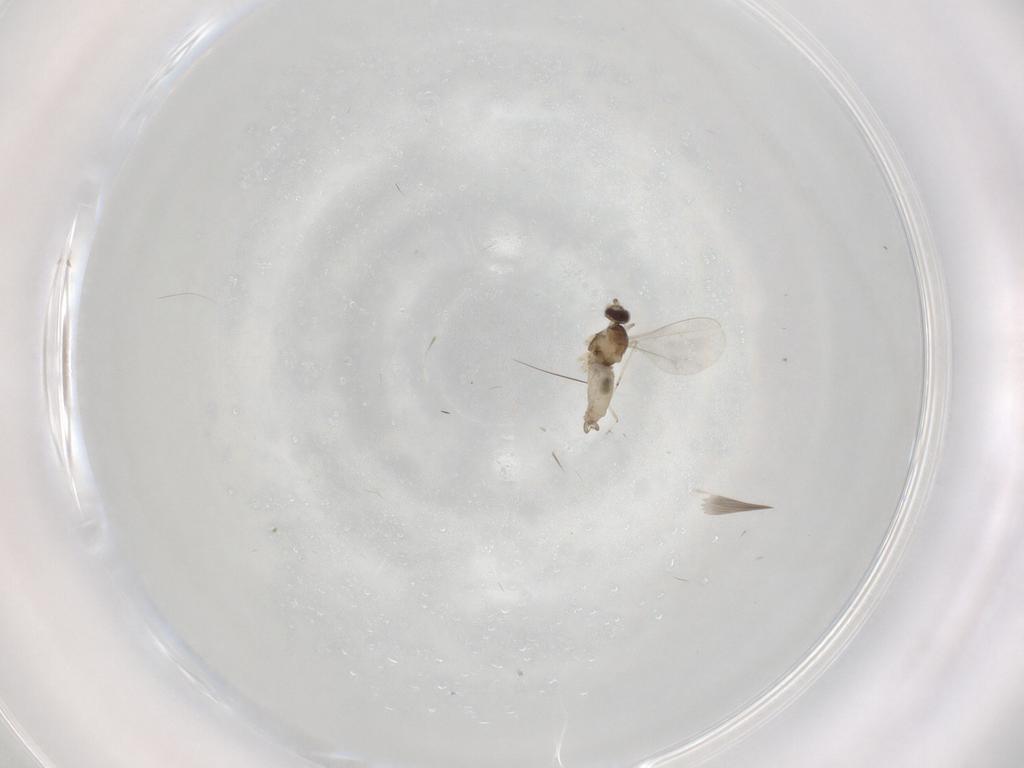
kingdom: Animalia
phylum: Arthropoda
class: Insecta
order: Diptera
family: Cecidomyiidae
